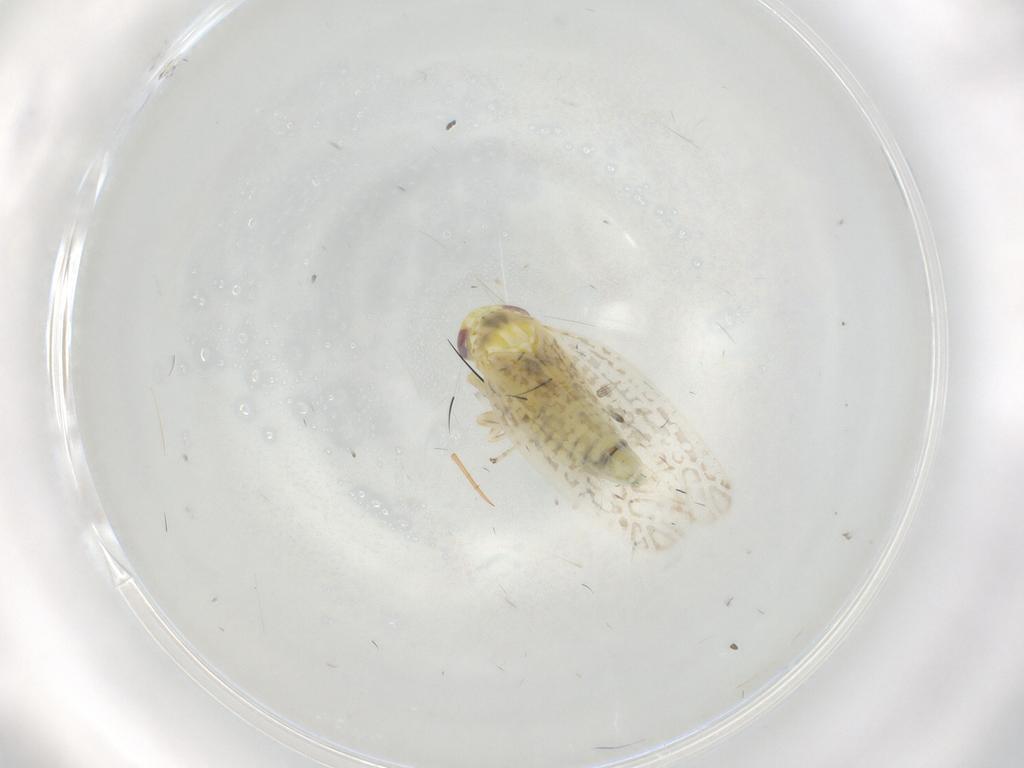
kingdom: Animalia
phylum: Arthropoda
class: Insecta
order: Hemiptera
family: Cicadellidae
